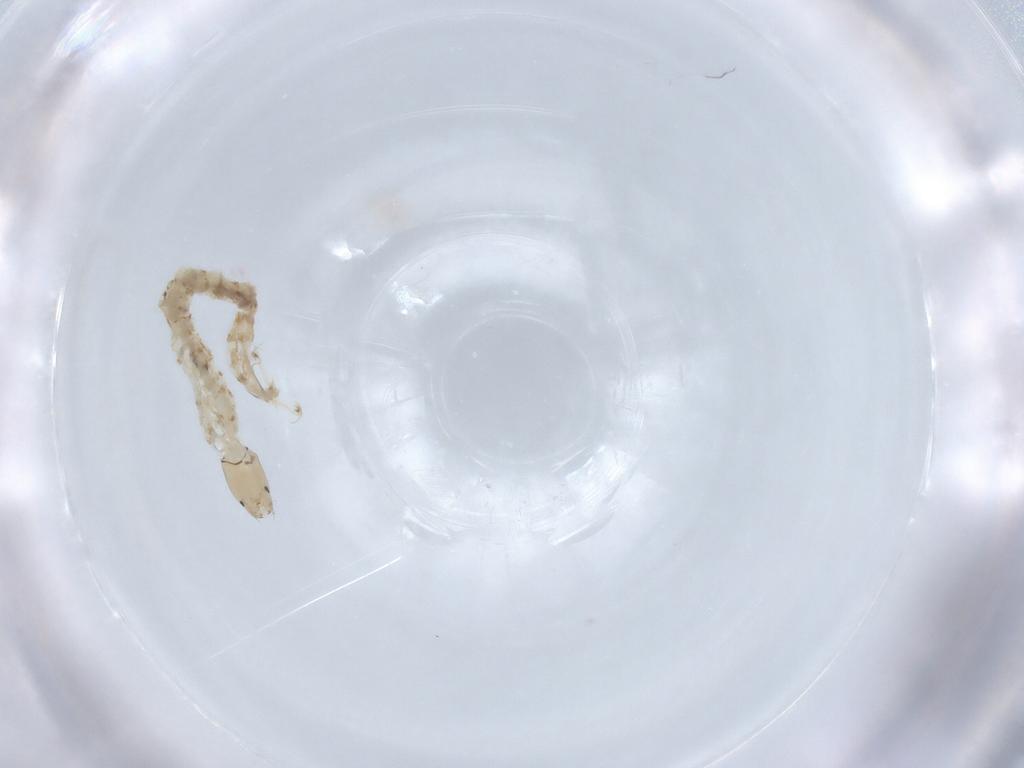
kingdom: Animalia
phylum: Arthropoda
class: Insecta
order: Diptera
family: Chironomidae
